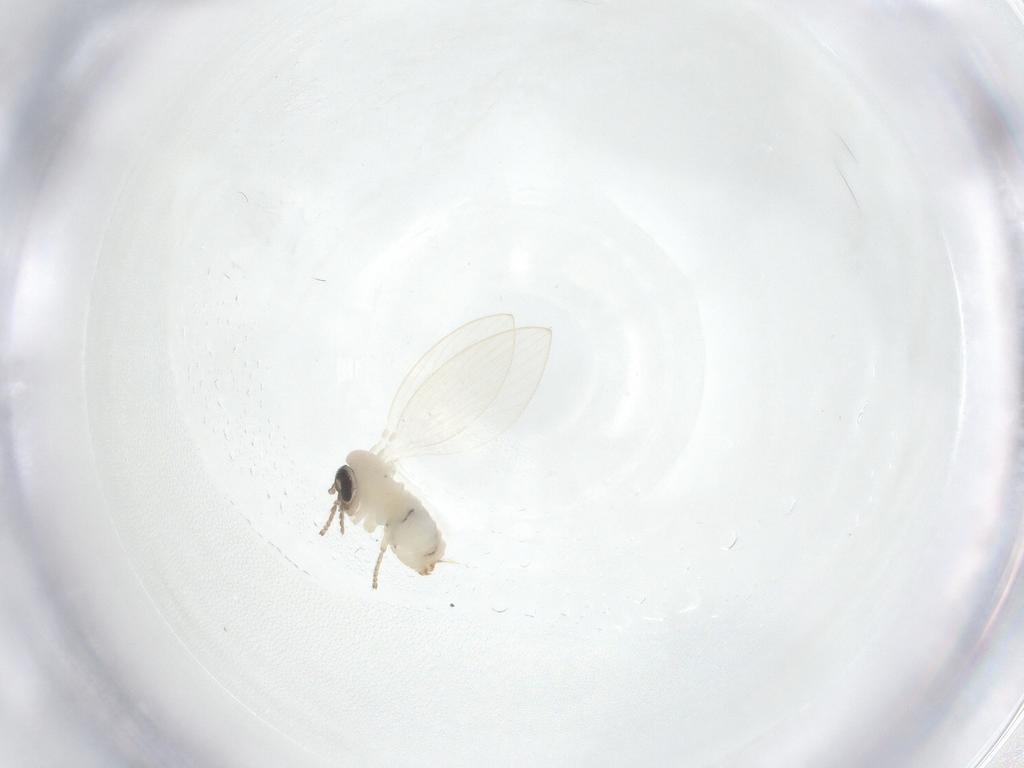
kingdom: Animalia
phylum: Arthropoda
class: Insecta
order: Diptera
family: Psychodidae
